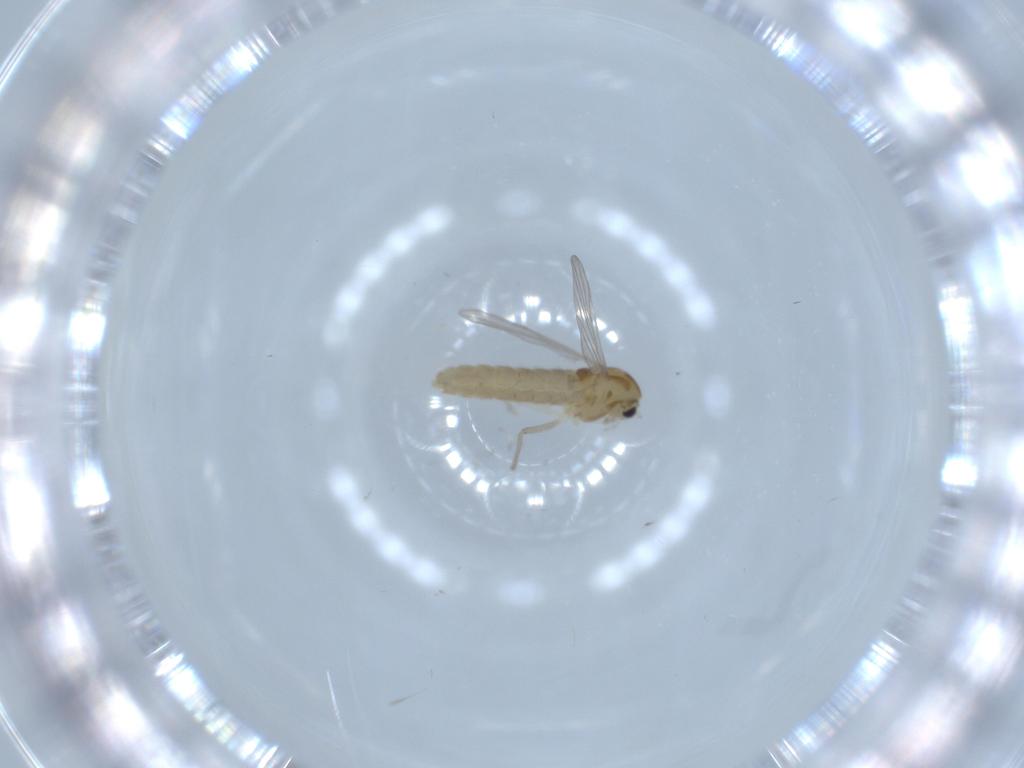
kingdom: Animalia
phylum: Arthropoda
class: Insecta
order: Diptera
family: Chironomidae
